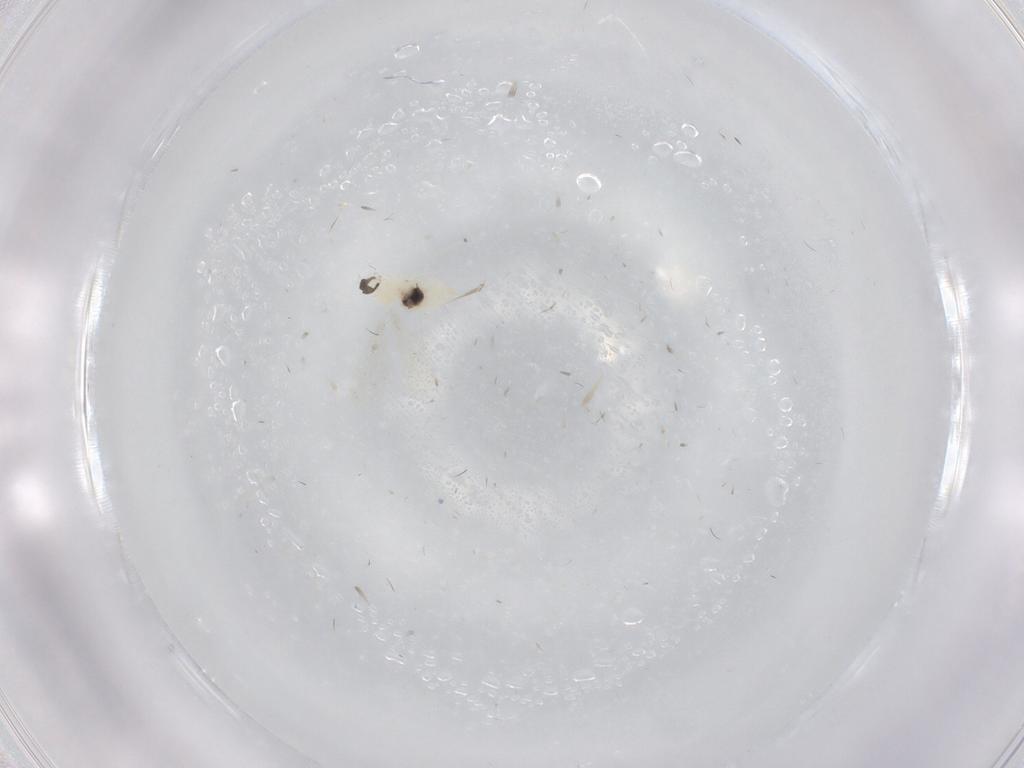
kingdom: Animalia
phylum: Arthropoda
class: Insecta
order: Diptera
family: Cecidomyiidae
